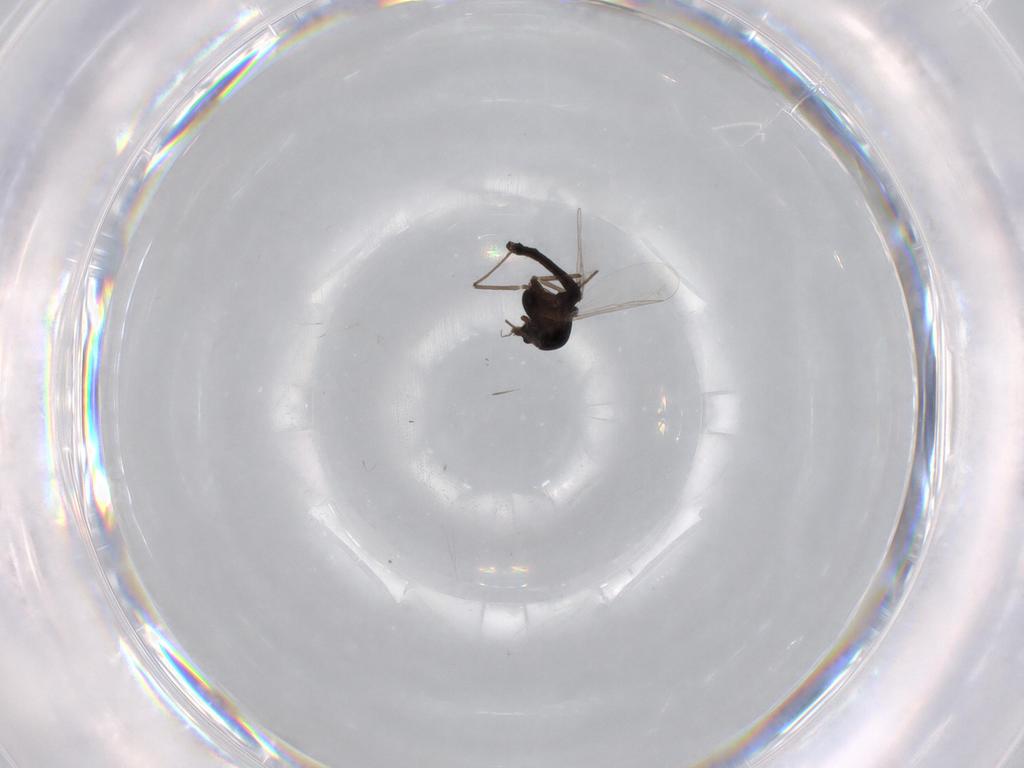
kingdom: Animalia
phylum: Arthropoda
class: Insecta
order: Diptera
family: Chironomidae
